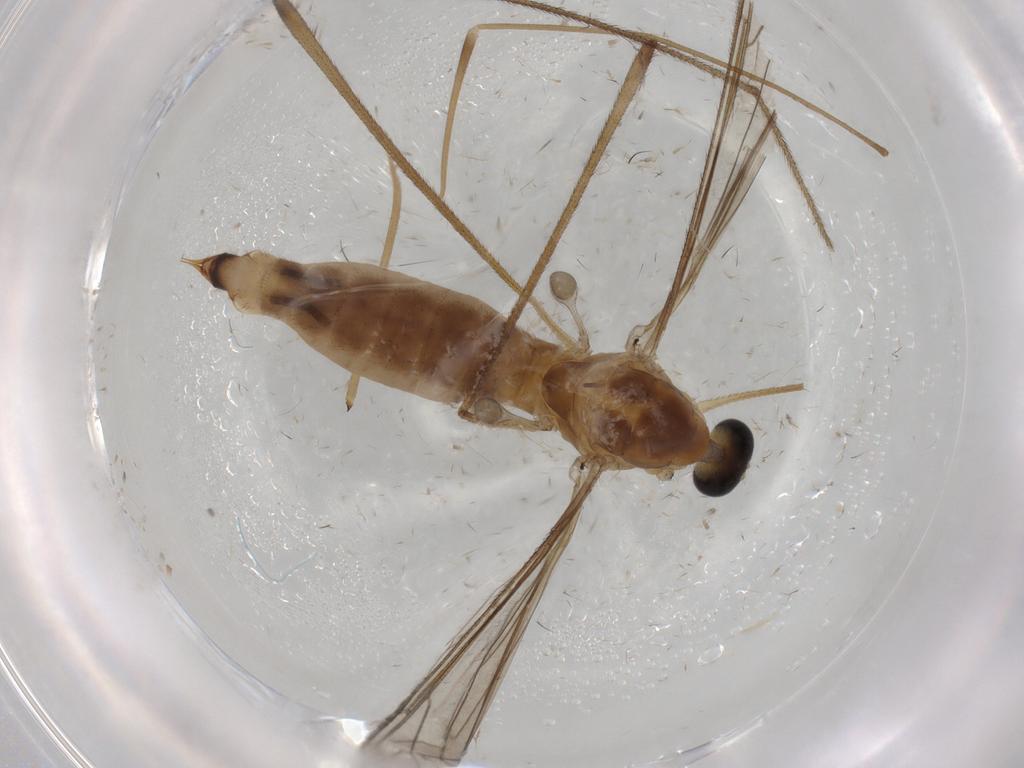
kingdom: Animalia
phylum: Arthropoda
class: Insecta
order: Diptera
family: Dolichopodidae
